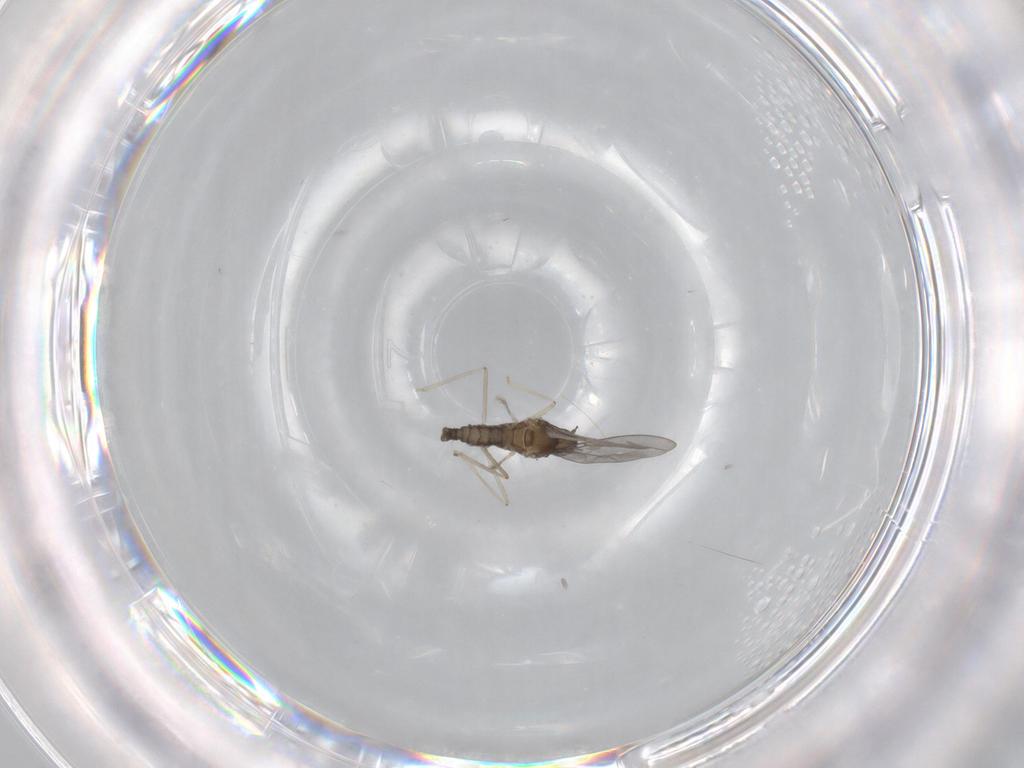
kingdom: Animalia
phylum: Arthropoda
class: Insecta
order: Diptera
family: Cecidomyiidae
